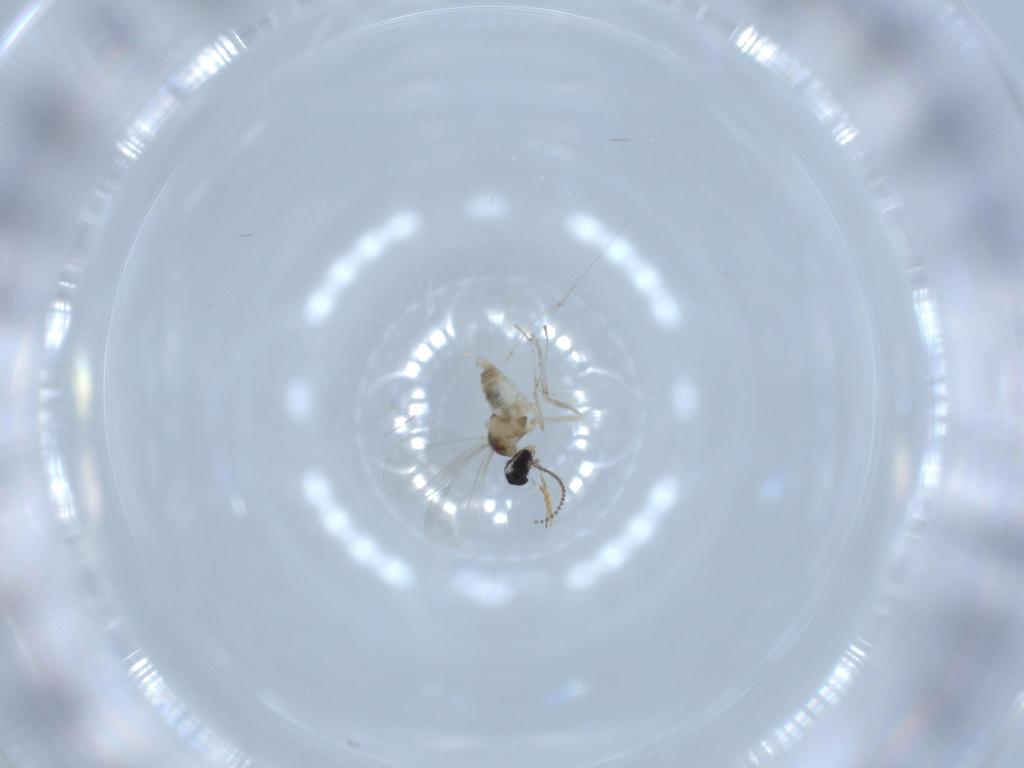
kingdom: Animalia
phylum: Arthropoda
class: Insecta
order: Diptera
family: Cecidomyiidae
